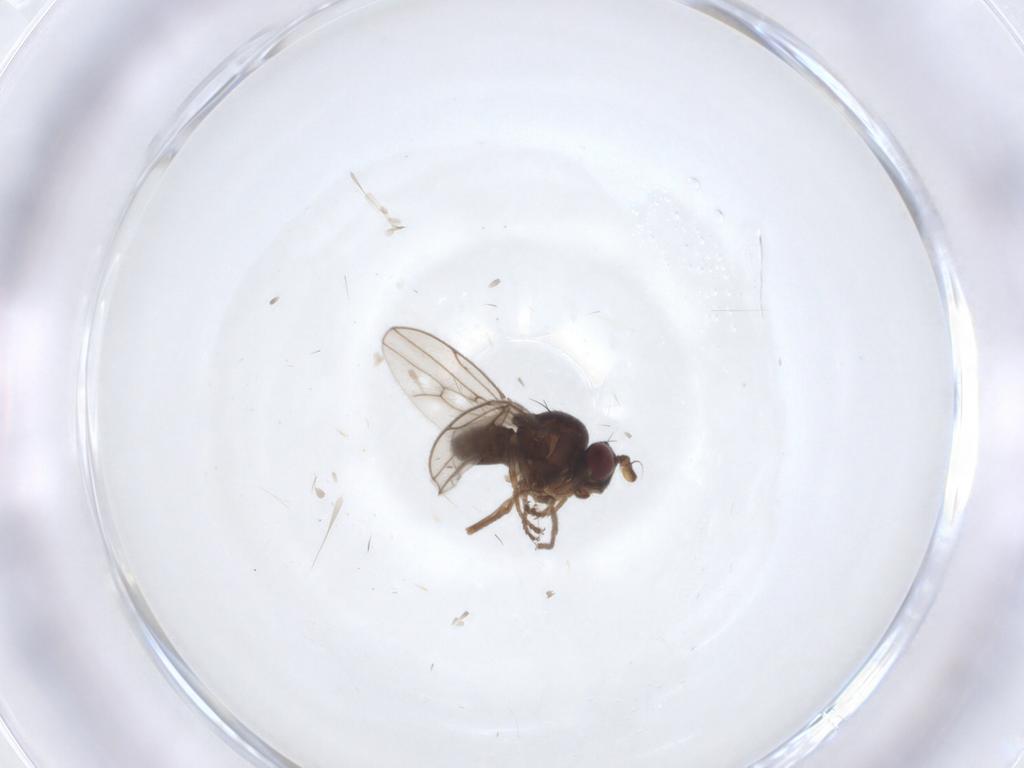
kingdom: Animalia
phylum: Arthropoda
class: Insecta
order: Diptera
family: Ephydridae
